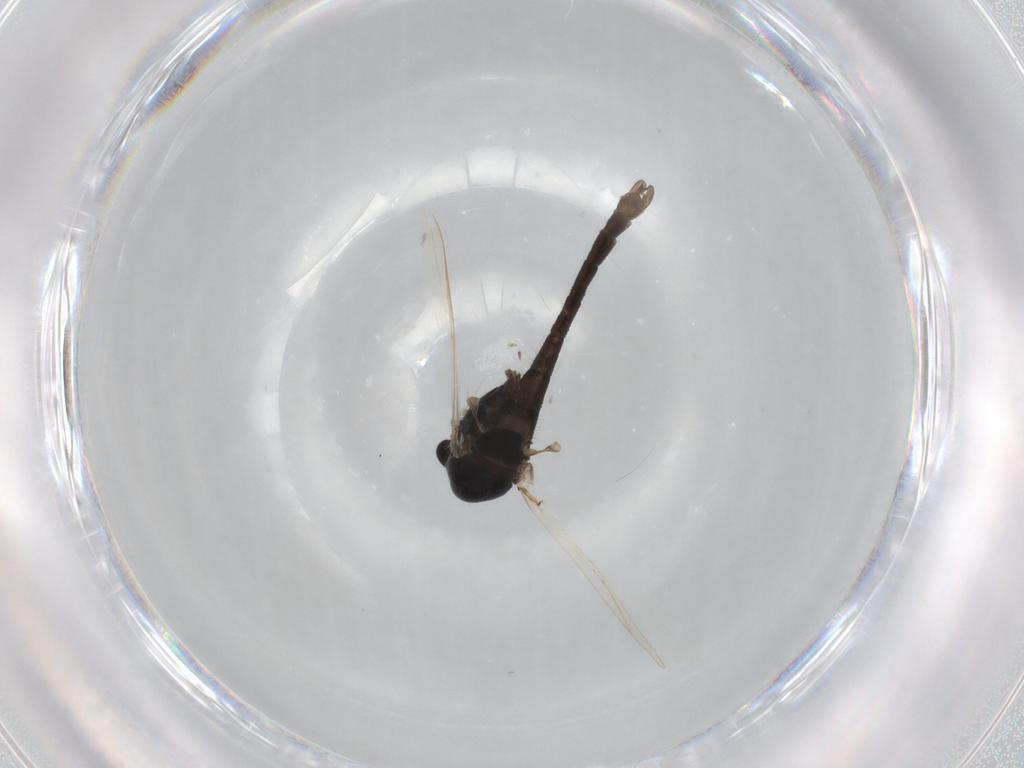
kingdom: Animalia
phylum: Arthropoda
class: Insecta
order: Diptera
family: Chironomidae
